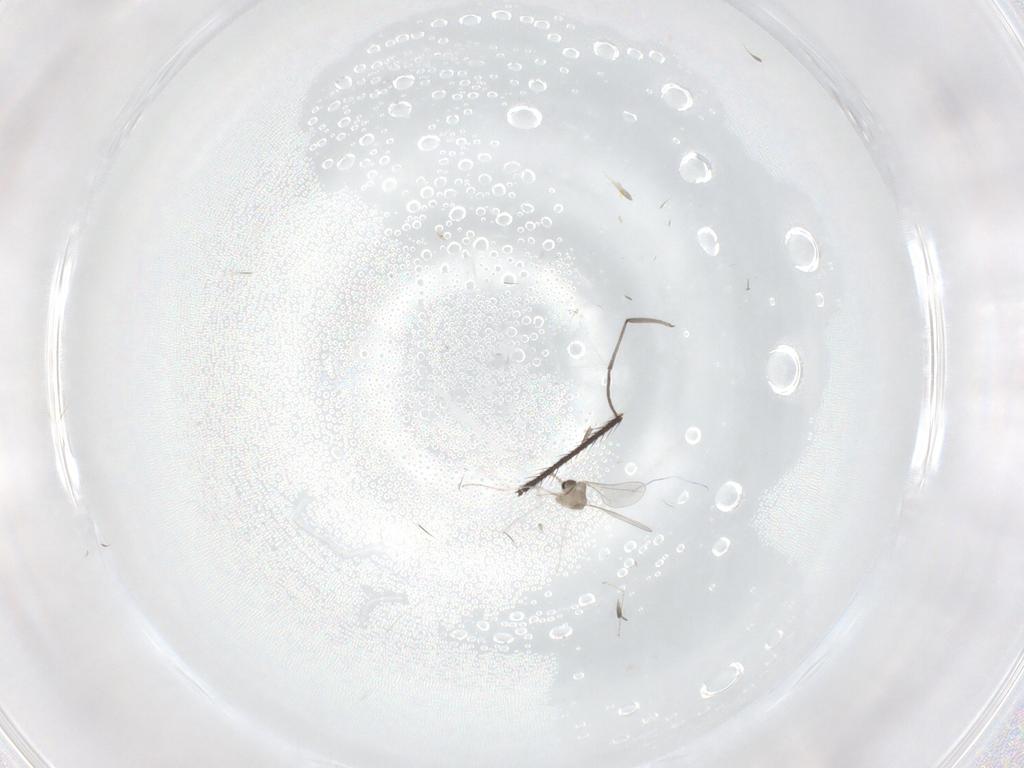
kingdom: Animalia
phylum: Arthropoda
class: Insecta
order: Diptera
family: Cecidomyiidae
